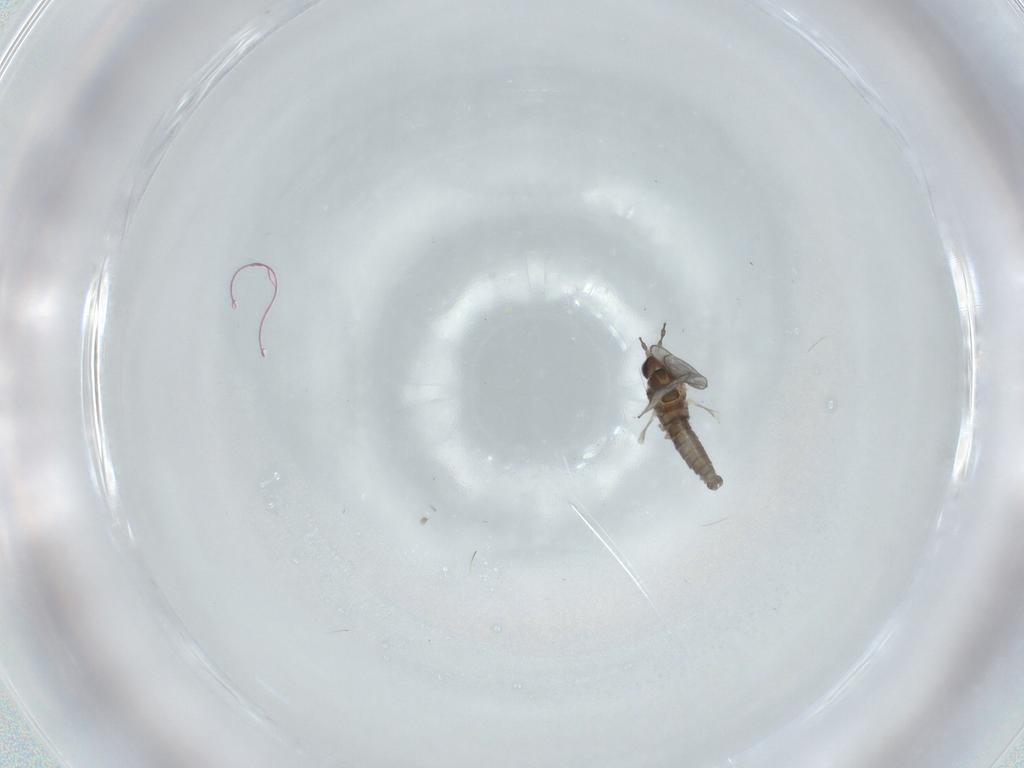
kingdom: Animalia
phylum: Arthropoda
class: Insecta
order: Diptera
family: Cecidomyiidae
